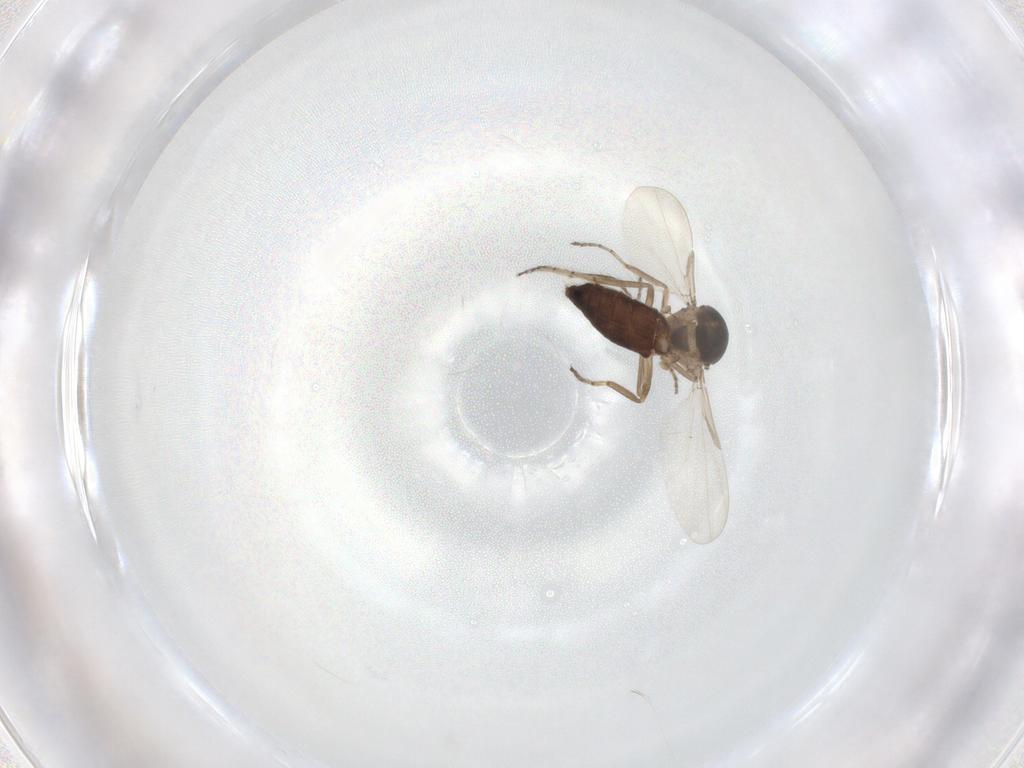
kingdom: Animalia
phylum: Arthropoda
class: Insecta
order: Diptera
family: Ceratopogonidae
